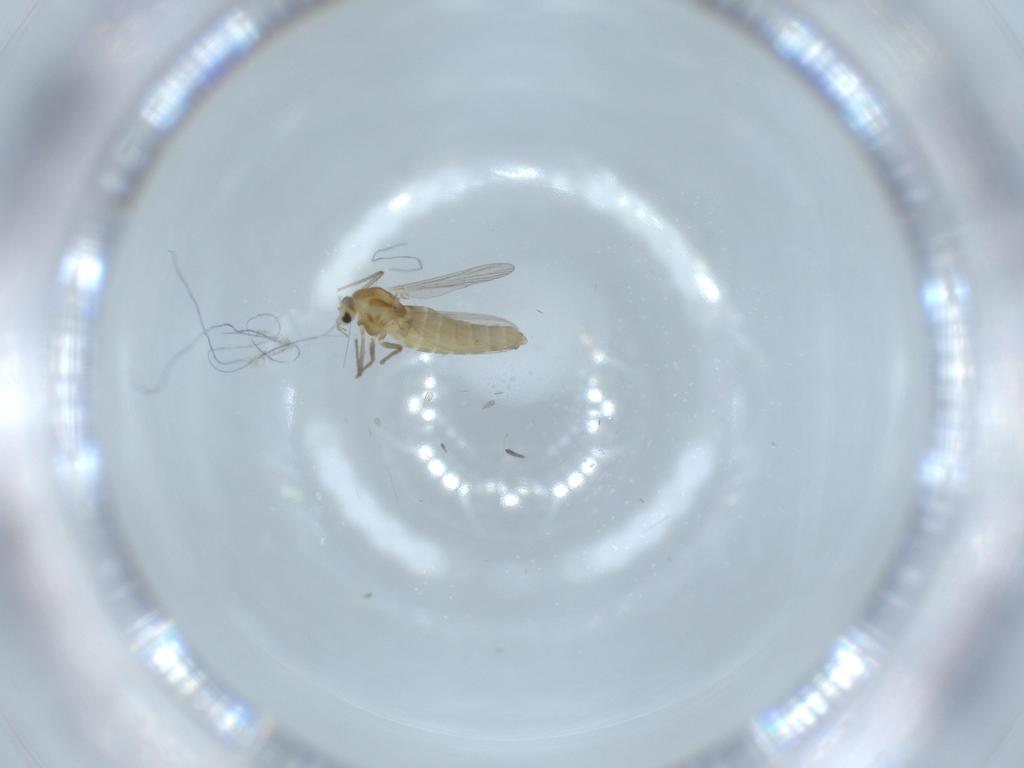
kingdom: Animalia
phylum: Arthropoda
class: Insecta
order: Diptera
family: Chironomidae
